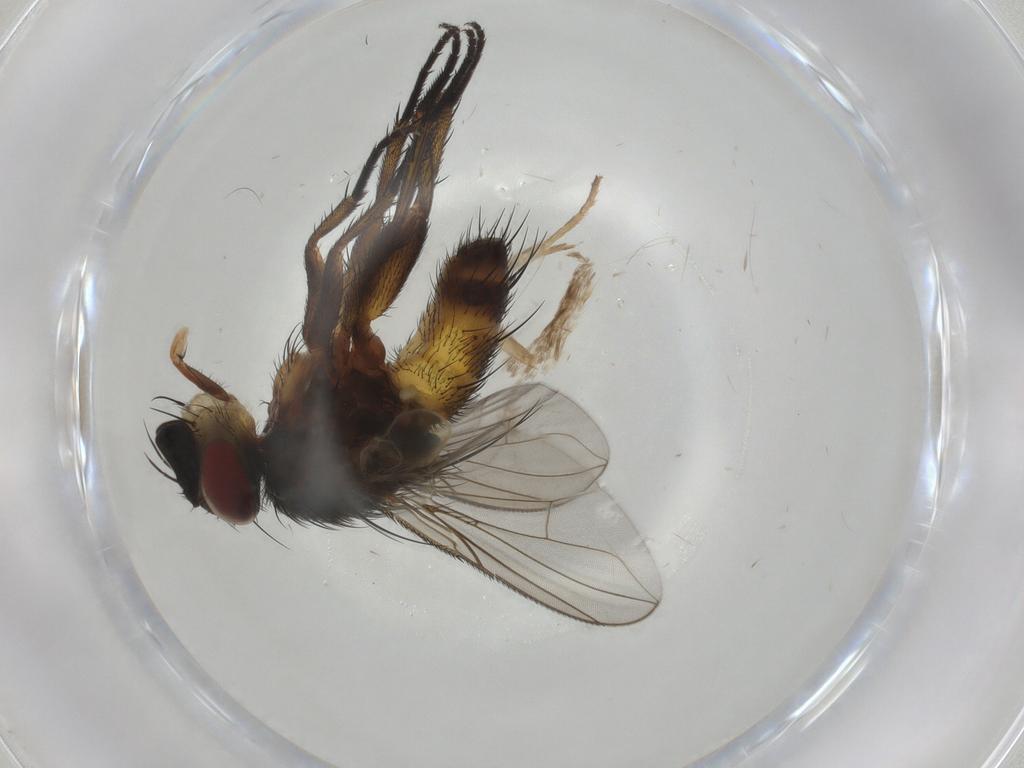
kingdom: Animalia
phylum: Arthropoda
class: Insecta
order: Diptera
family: Tachinidae
